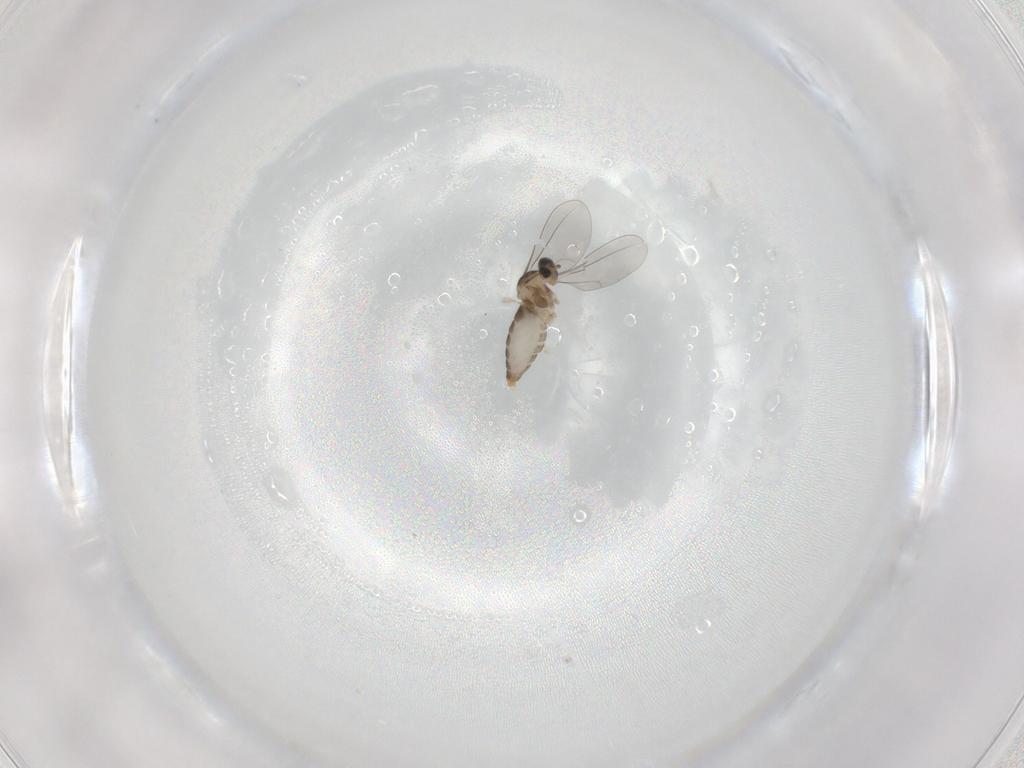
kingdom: Animalia
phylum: Arthropoda
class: Insecta
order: Diptera
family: Cecidomyiidae
